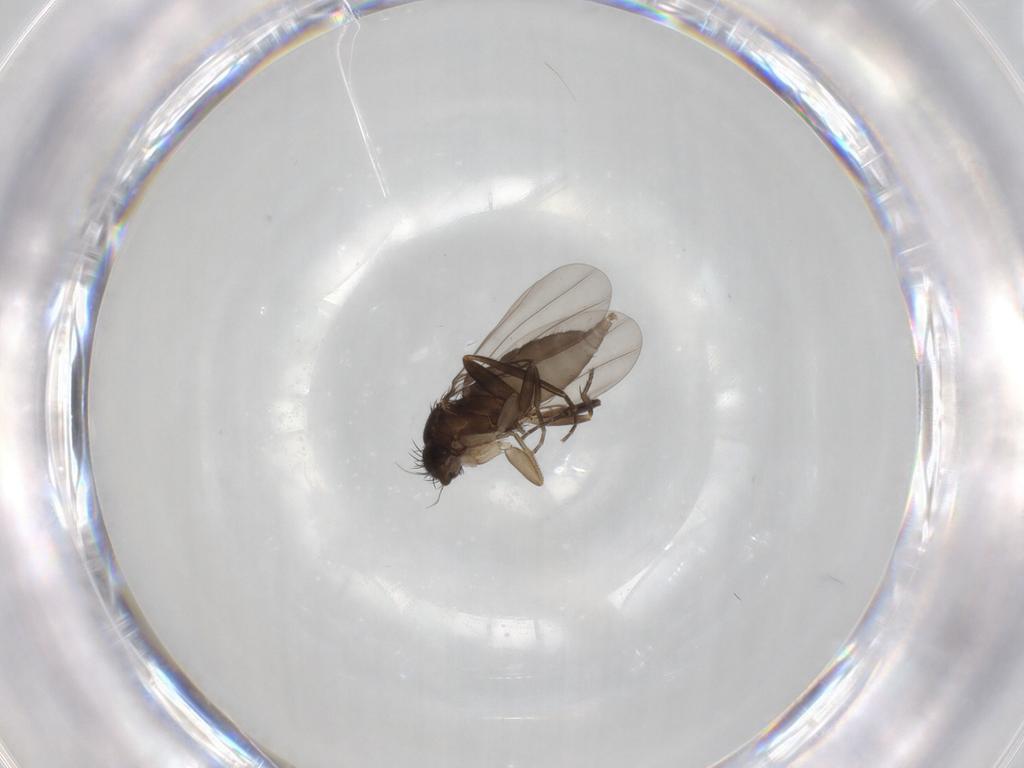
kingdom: Animalia
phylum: Arthropoda
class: Insecta
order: Diptera
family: Phoridae
